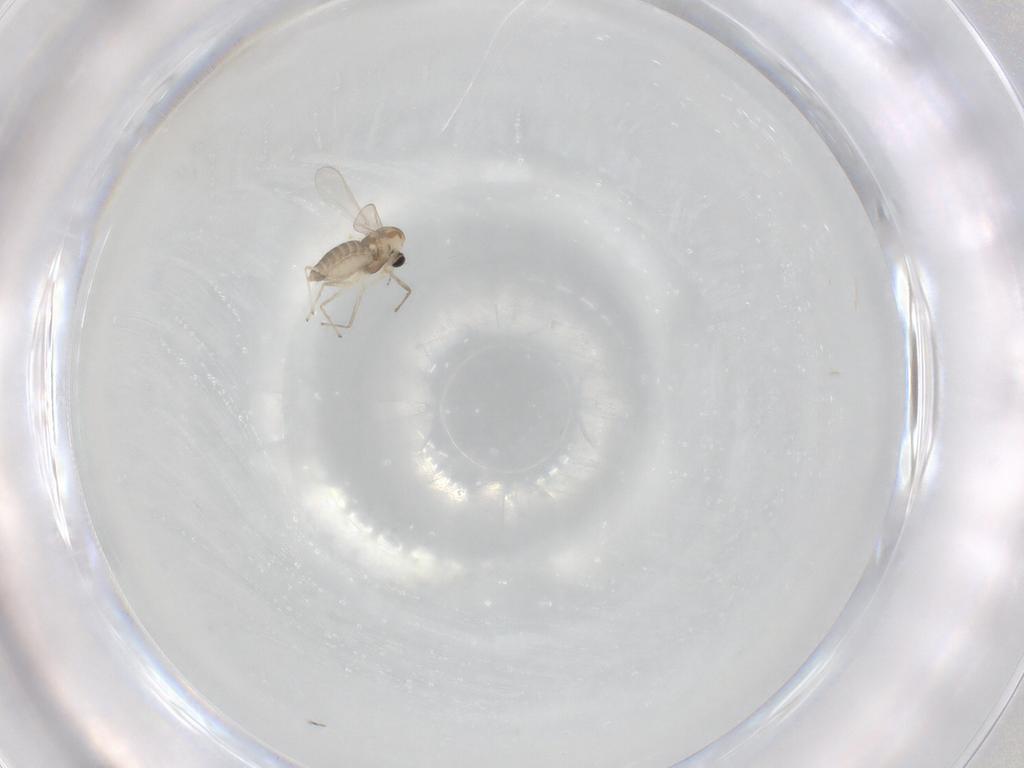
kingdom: Animalia
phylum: Arthropoda
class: Insecta
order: Diptera
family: Chironomidae
